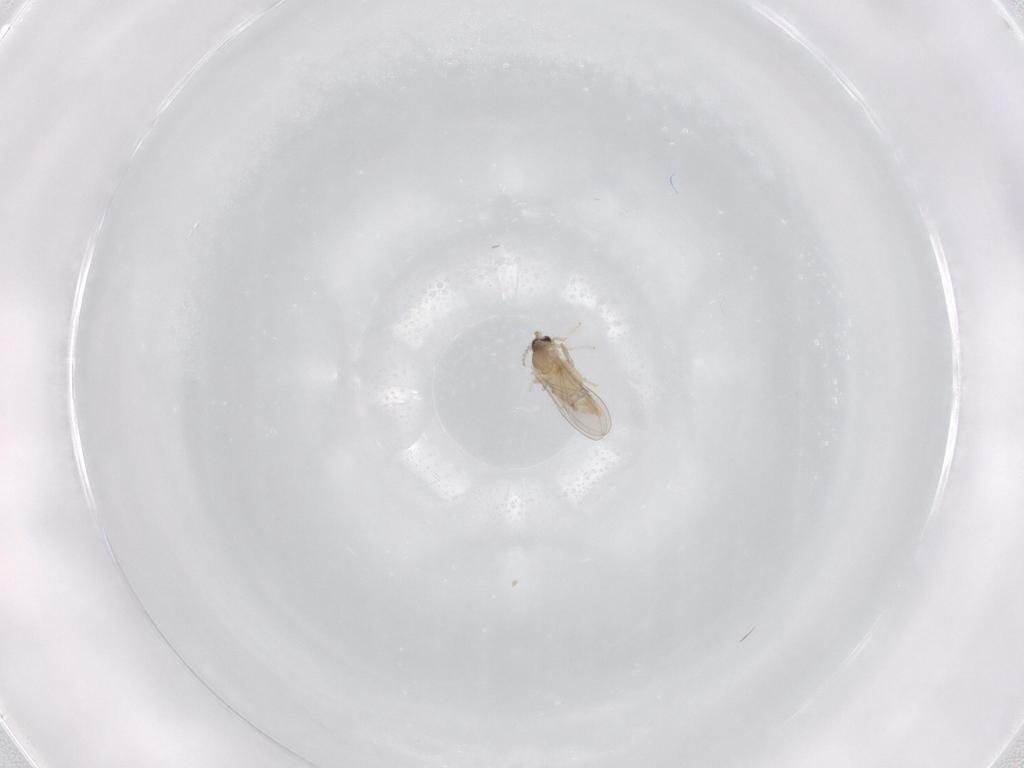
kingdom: Animalia
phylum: Arthropoda
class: Insecta
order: Diptera
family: Cecidomyiidae
